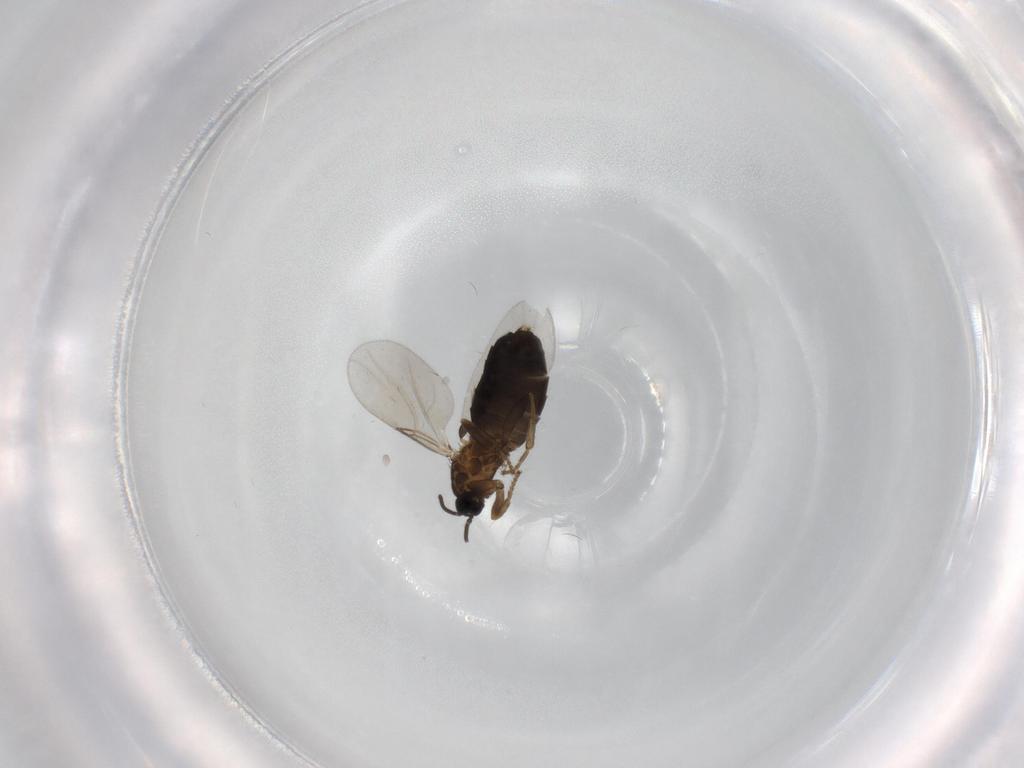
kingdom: Animalia
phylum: Arthropoda
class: Insecta
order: Diptera
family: Scatopsidae
